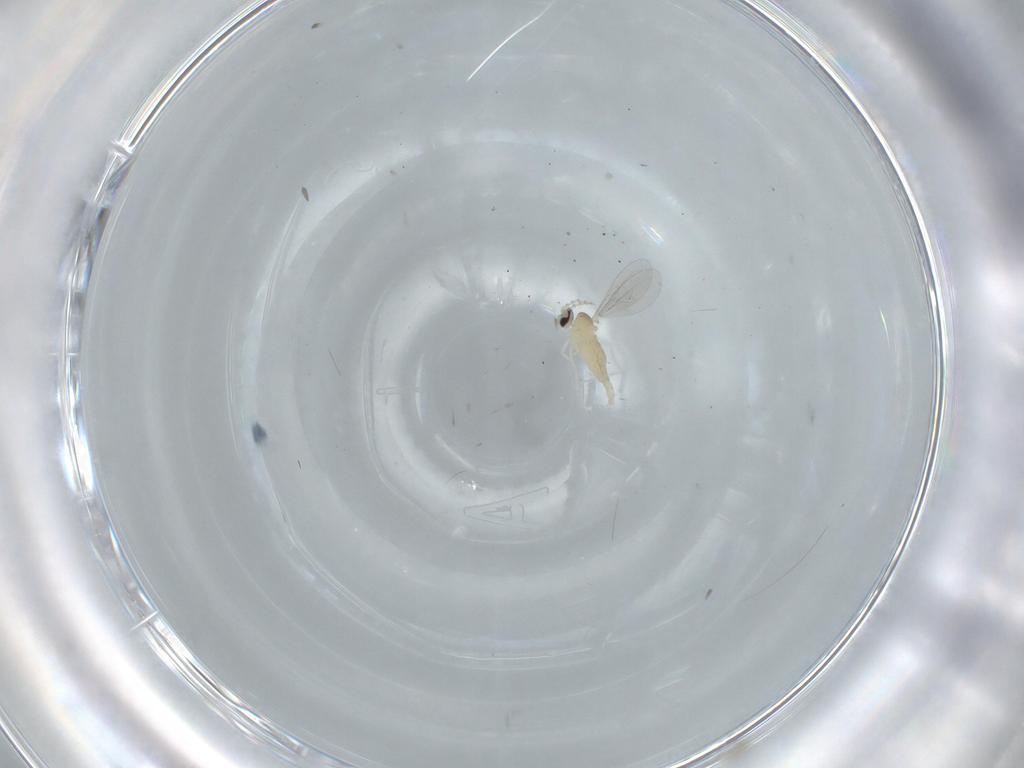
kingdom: Animalia
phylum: Arthropoda
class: Insecta
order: Diptera
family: Cecidomyiidae
